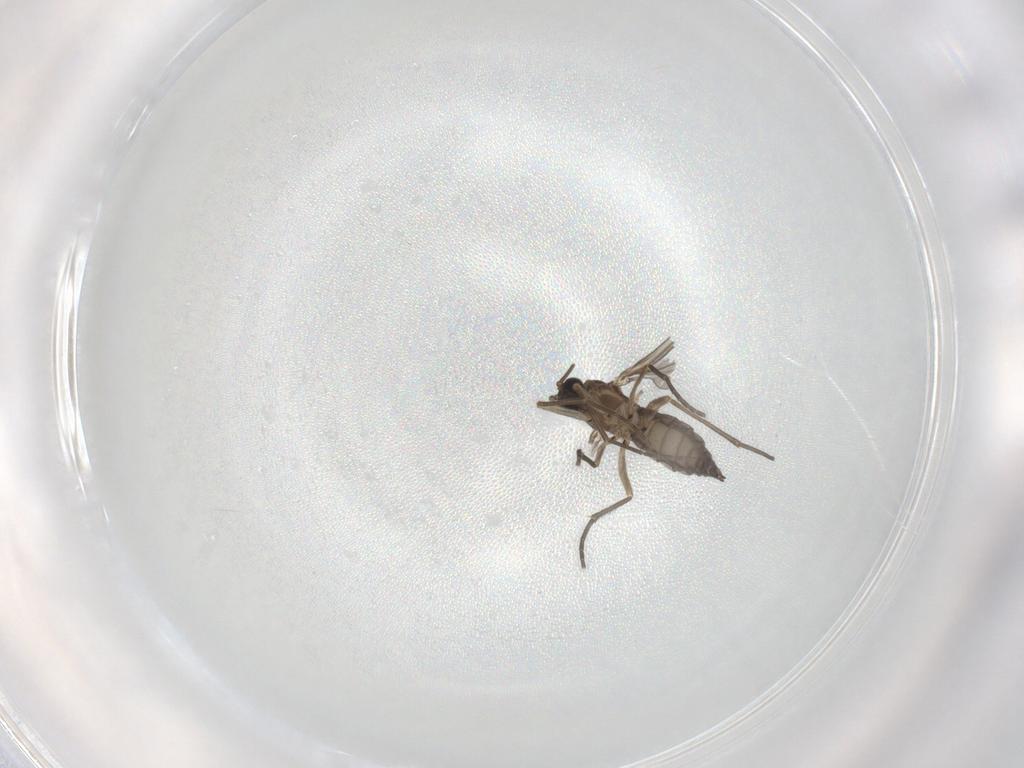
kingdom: Animalia
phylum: Arthropoda
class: Insecta
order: Diptera
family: Sciaridae
